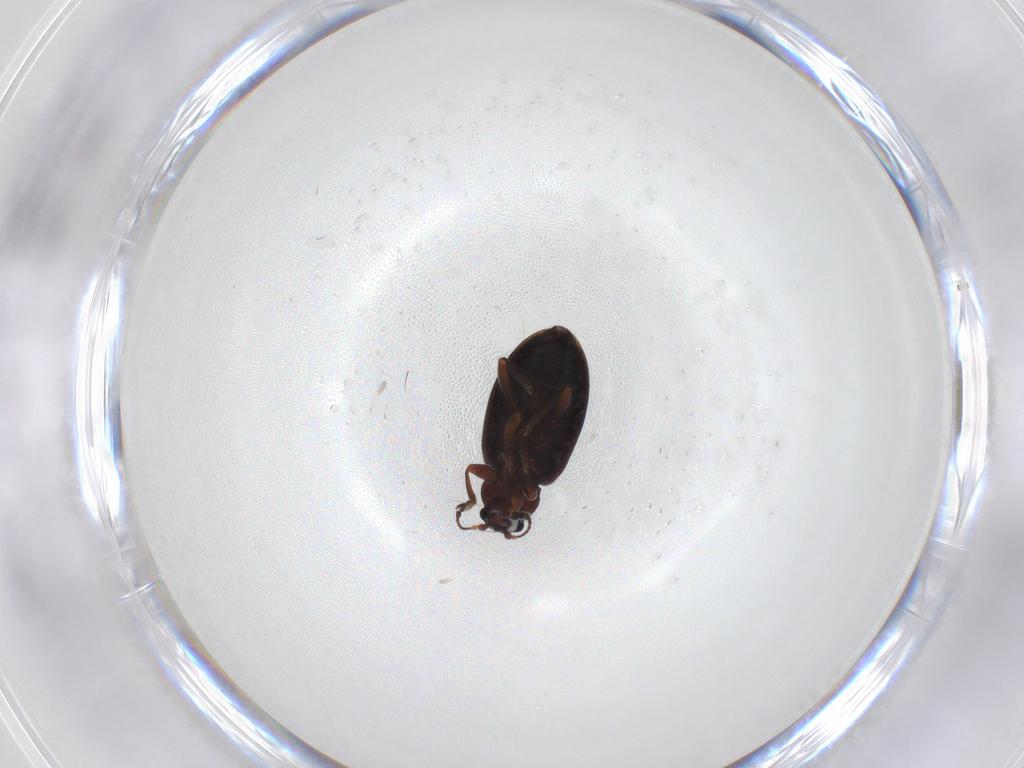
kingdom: Animalia
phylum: Arthropoda
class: Insecta
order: Coleoptera
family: Latridiidae
